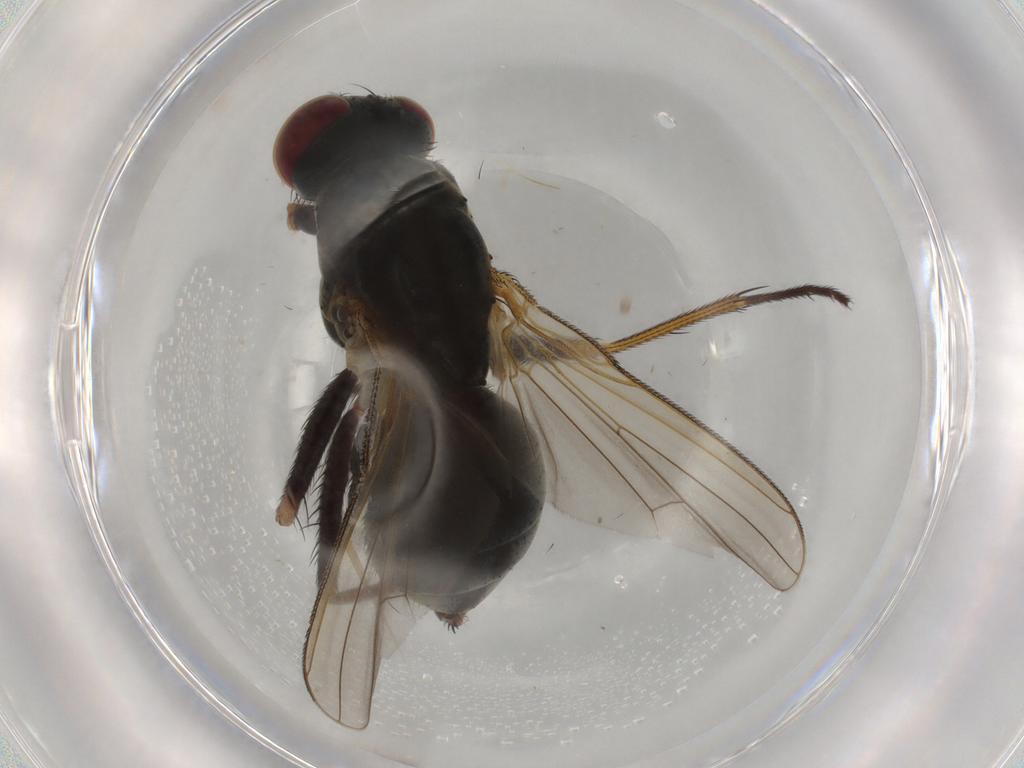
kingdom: Animalia
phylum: Arthropoda
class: Insecta
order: Diptera
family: Muscidae
